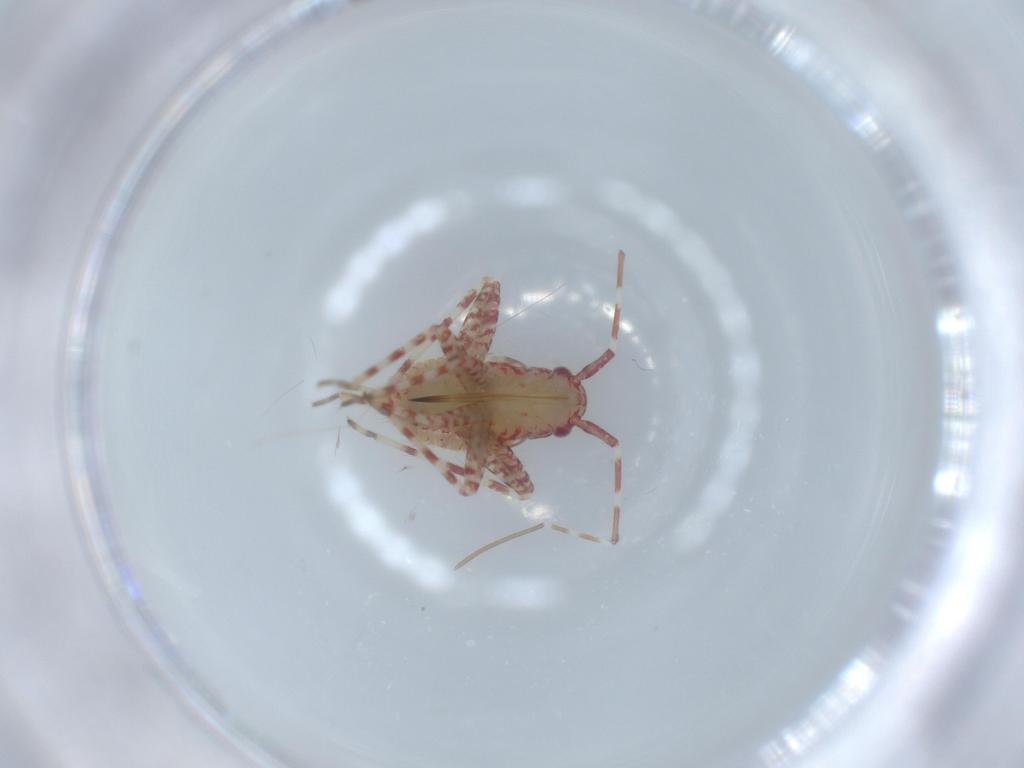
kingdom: Animalia
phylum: Arthropoda
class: Insecta
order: Hemiptera
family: Miridae
